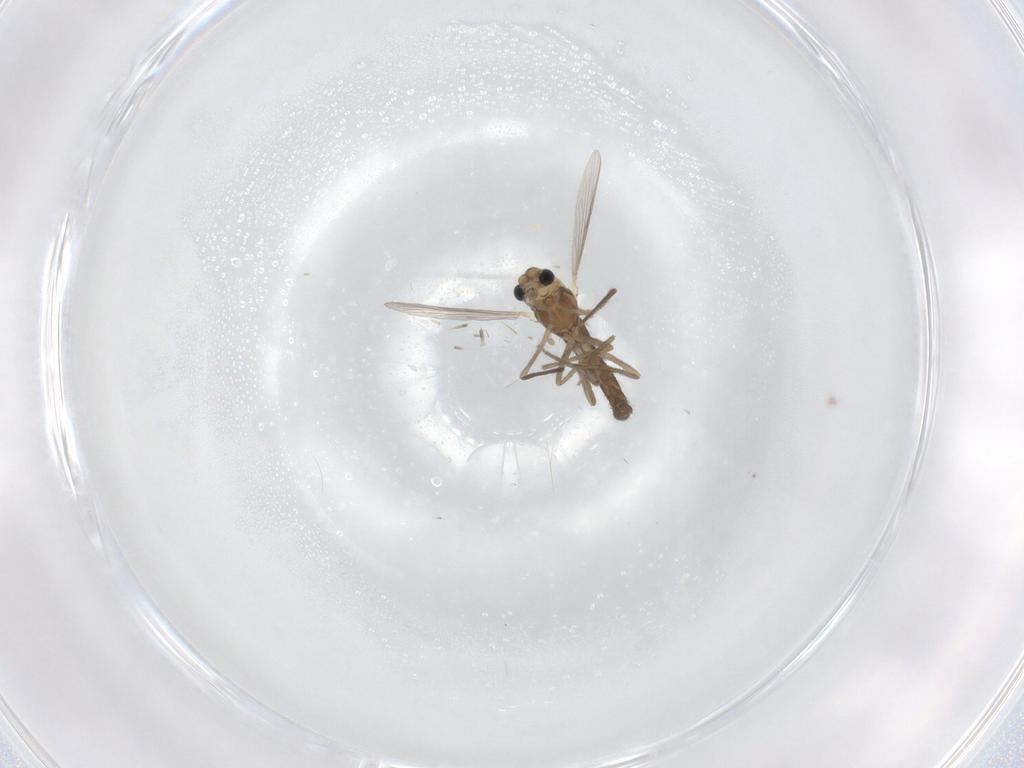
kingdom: Animalia
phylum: Arthropoda
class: Insecta
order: Diptera
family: Chironomidae
